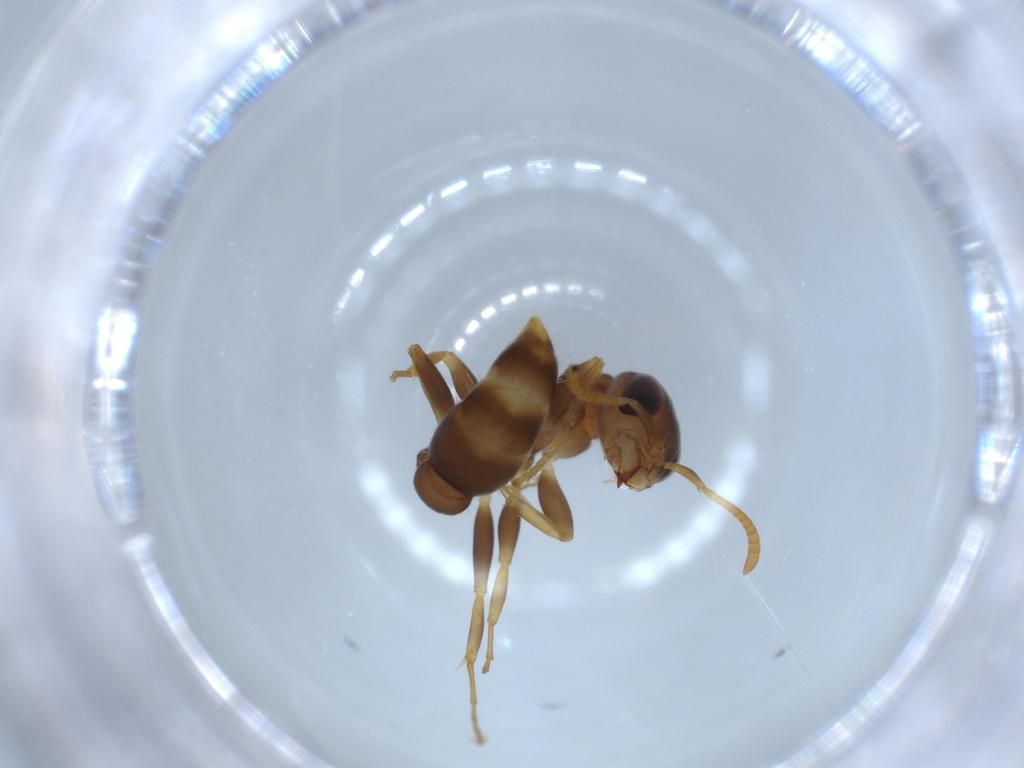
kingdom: Animalia
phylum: Arthropoda
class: Insecta
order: Hymenoptera
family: Formicidae
